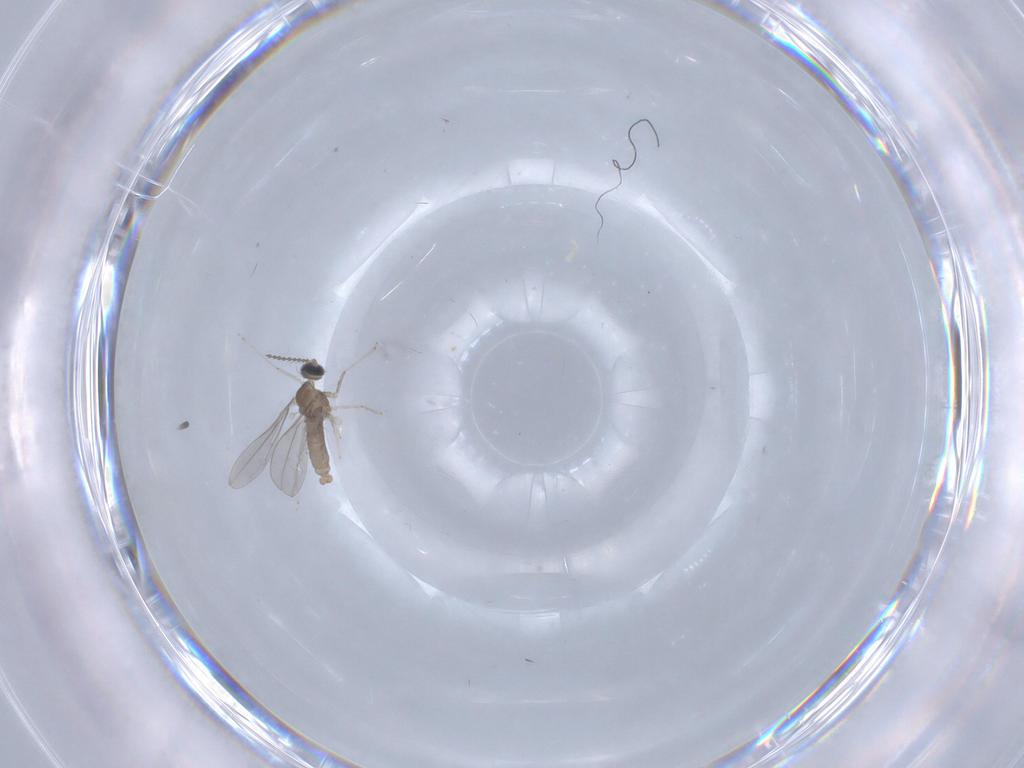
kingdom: Animalia
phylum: Arthropoda
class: Insecta
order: Diptera
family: Cecidomyiidae
